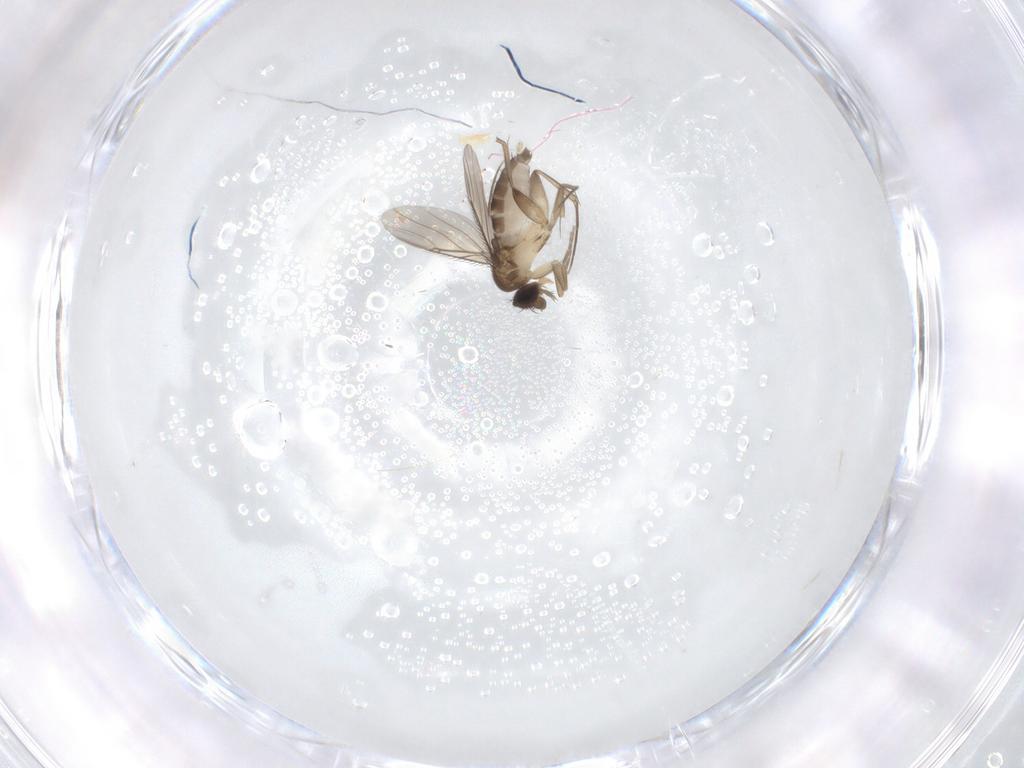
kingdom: Animalia
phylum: Arthropoda
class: Insecta
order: Diptera
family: Phoridae
